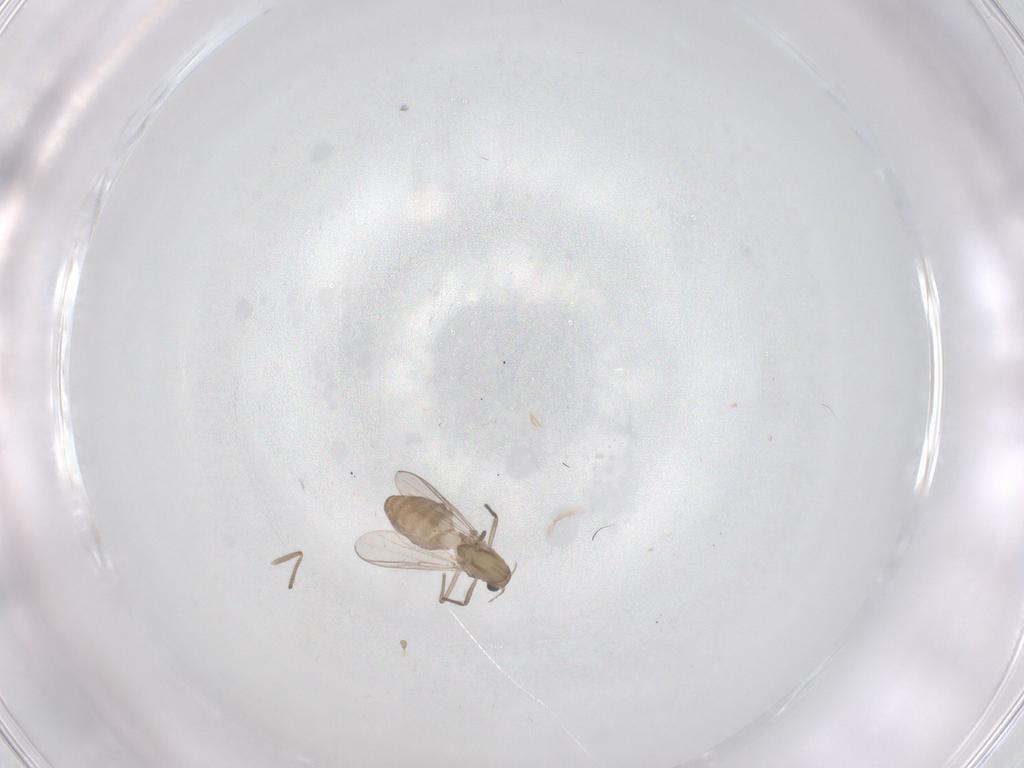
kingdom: Animalia
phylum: Arthropoda
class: Insecta
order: Diptera
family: Chironomidae
